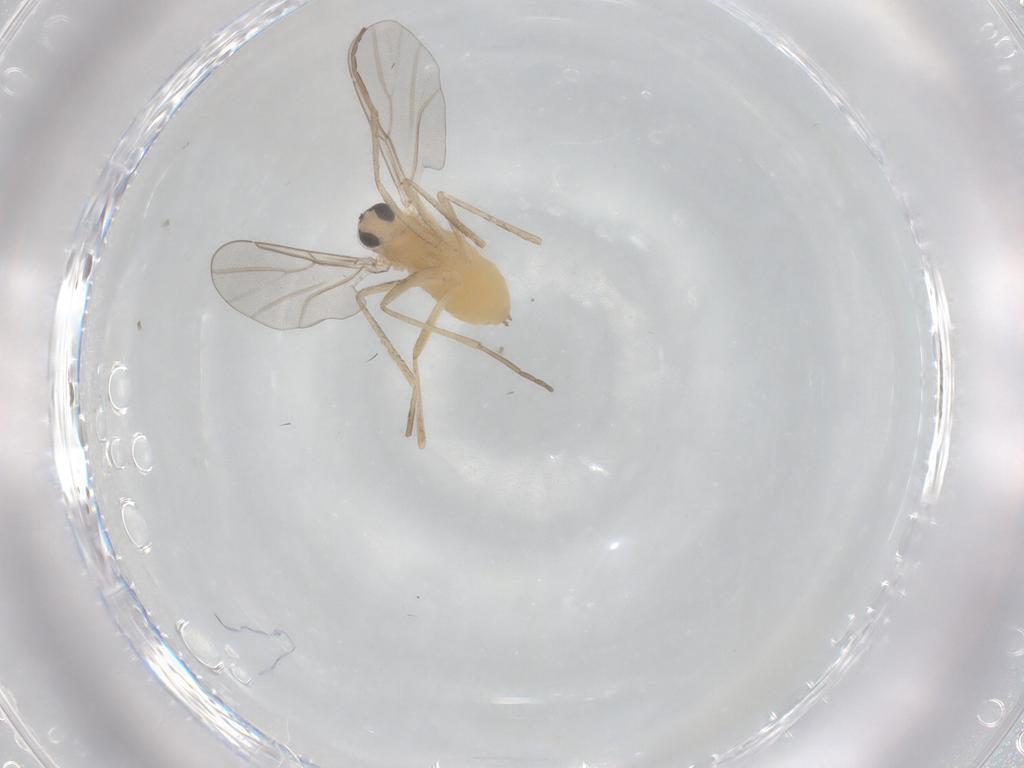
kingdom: Animalia
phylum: Arthropoda
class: Insecta
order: Diptera
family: Cecidomyiidae
